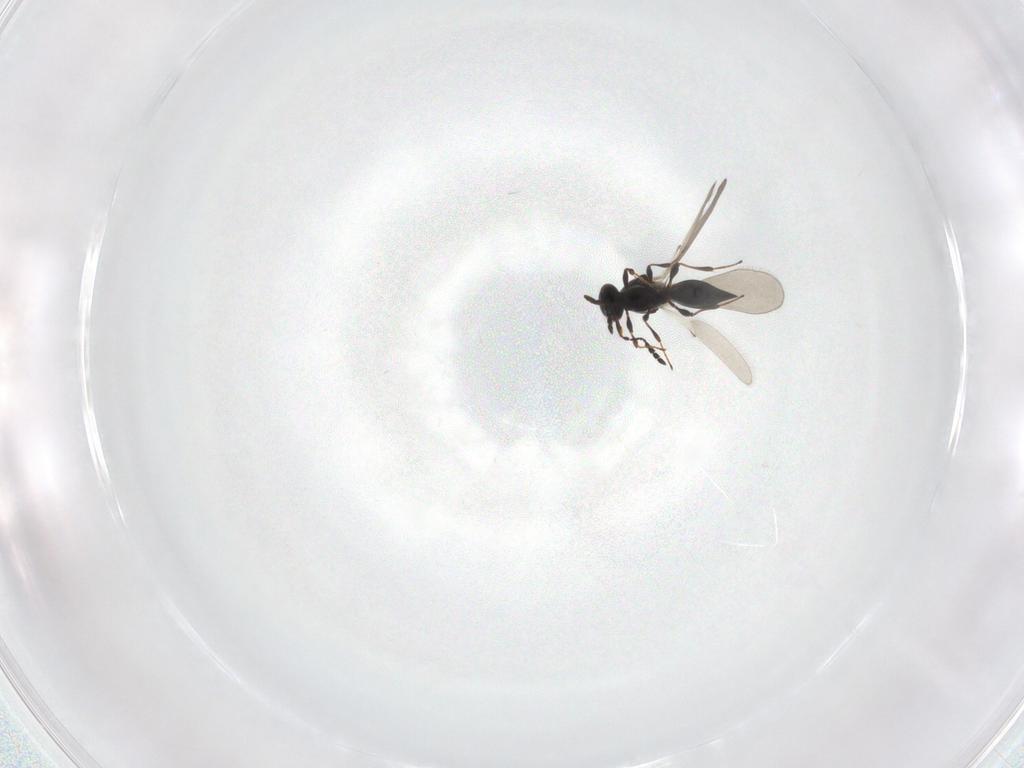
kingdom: Animalia
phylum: Arthropoda
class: Insecta
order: Hymenoptera
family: Platygastridae
